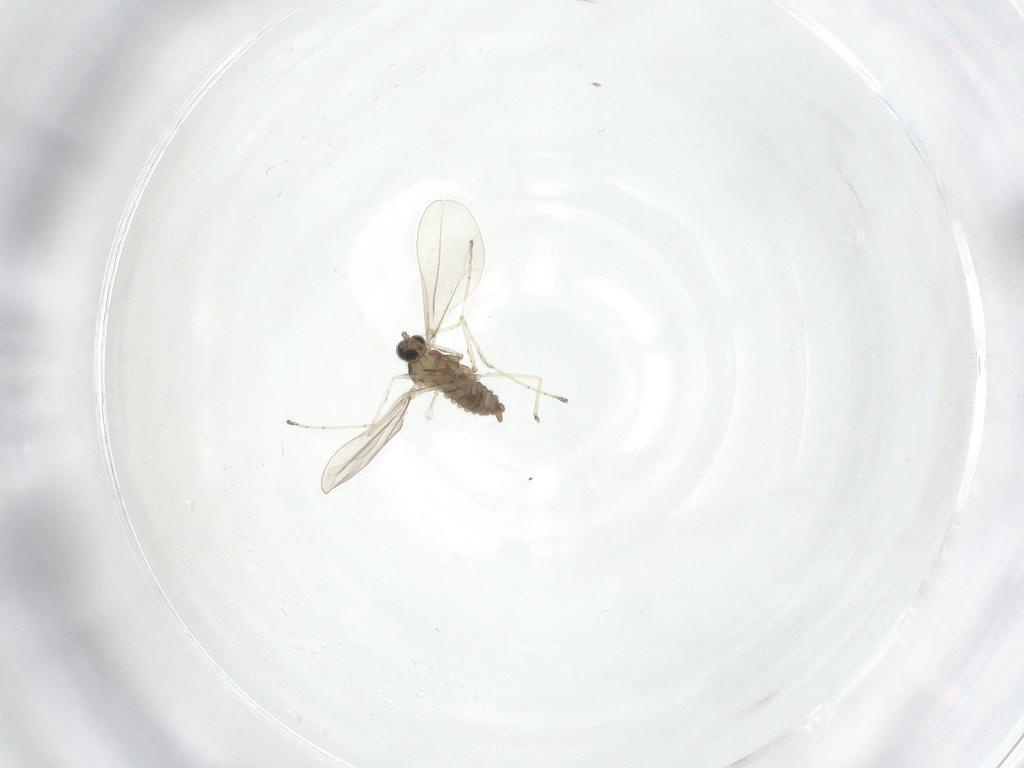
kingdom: Animalia
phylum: Arthropoda
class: Insecta
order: Diptera
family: Cecidomyiidae
